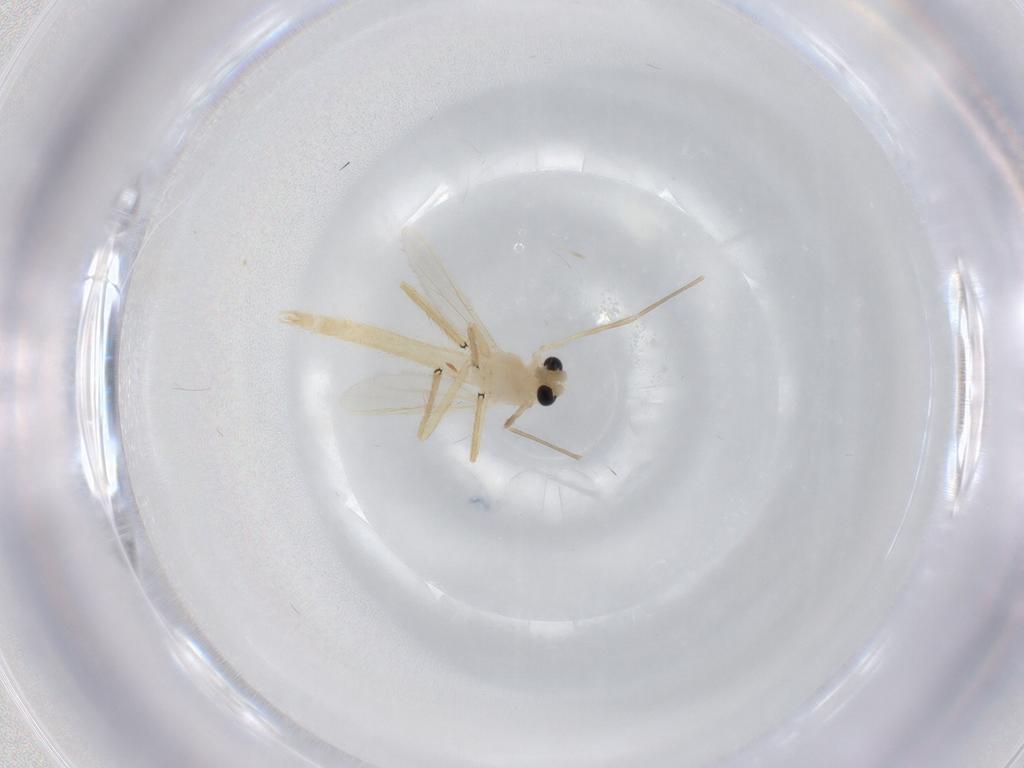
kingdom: Animalia
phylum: Arthropoda
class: Insecta
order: Diptera
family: Chironomidae
